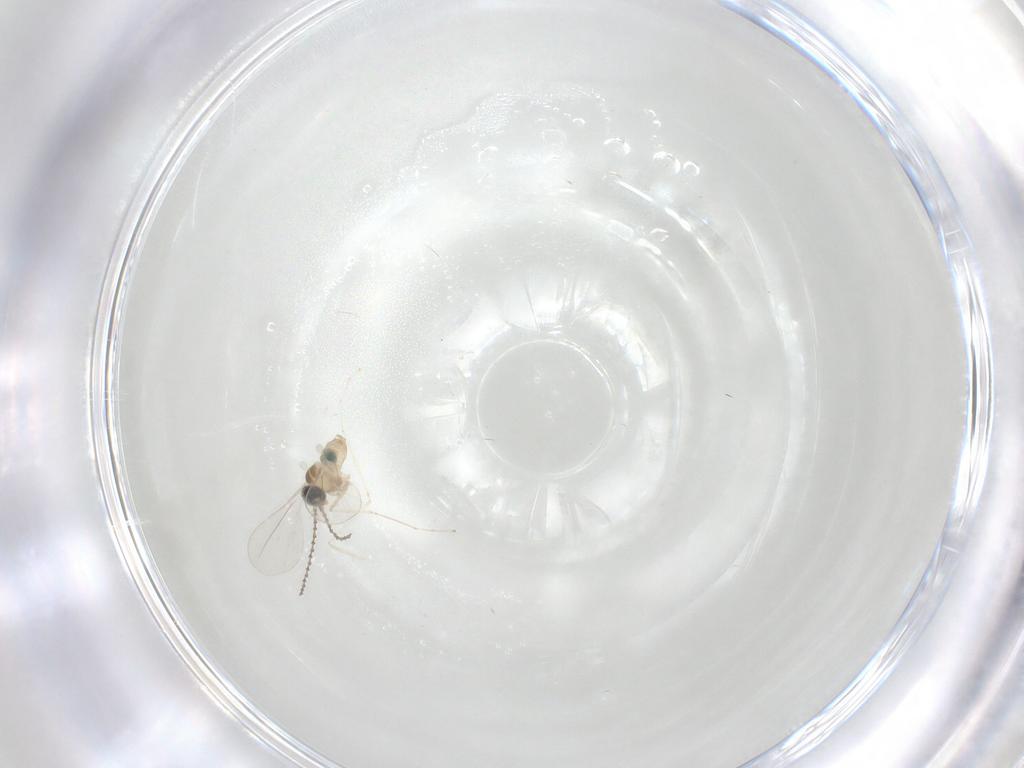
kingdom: Animalia
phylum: Arthropoda
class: Insecta
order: Diptera
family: Cecidomyiidae
